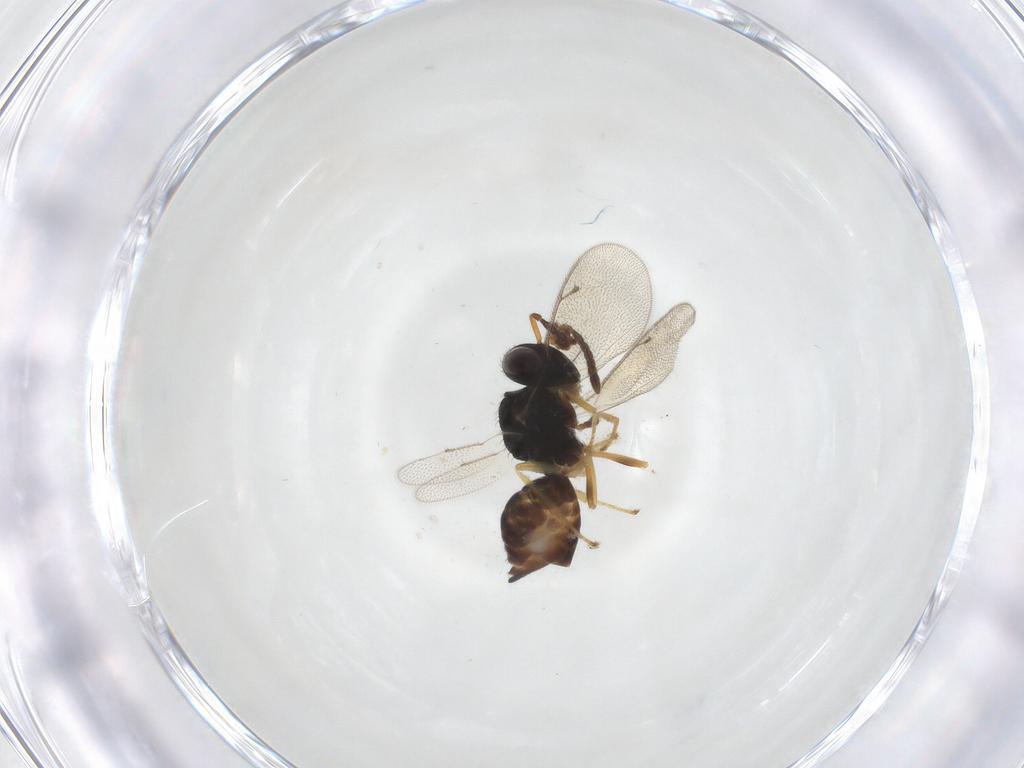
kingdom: Animalia
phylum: Arthropoda
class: Insecta
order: Hymenoptera
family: Pteromalidae
